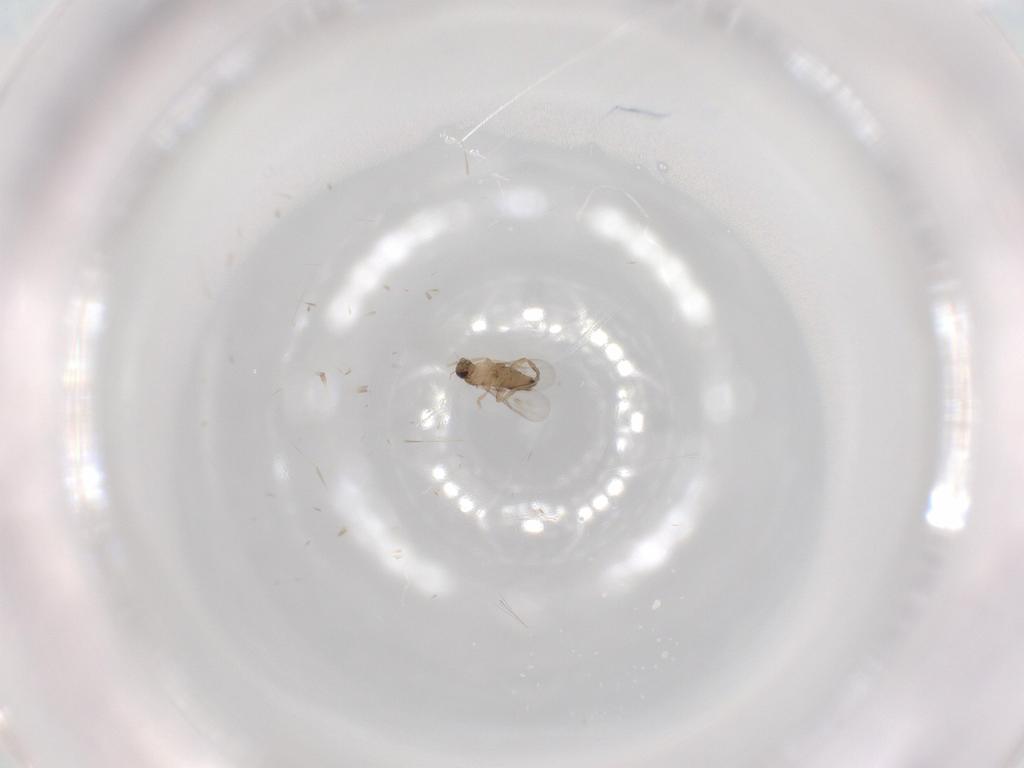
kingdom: Animalia
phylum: Arthropoda
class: Insecta
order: Diptera
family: Phoridae
